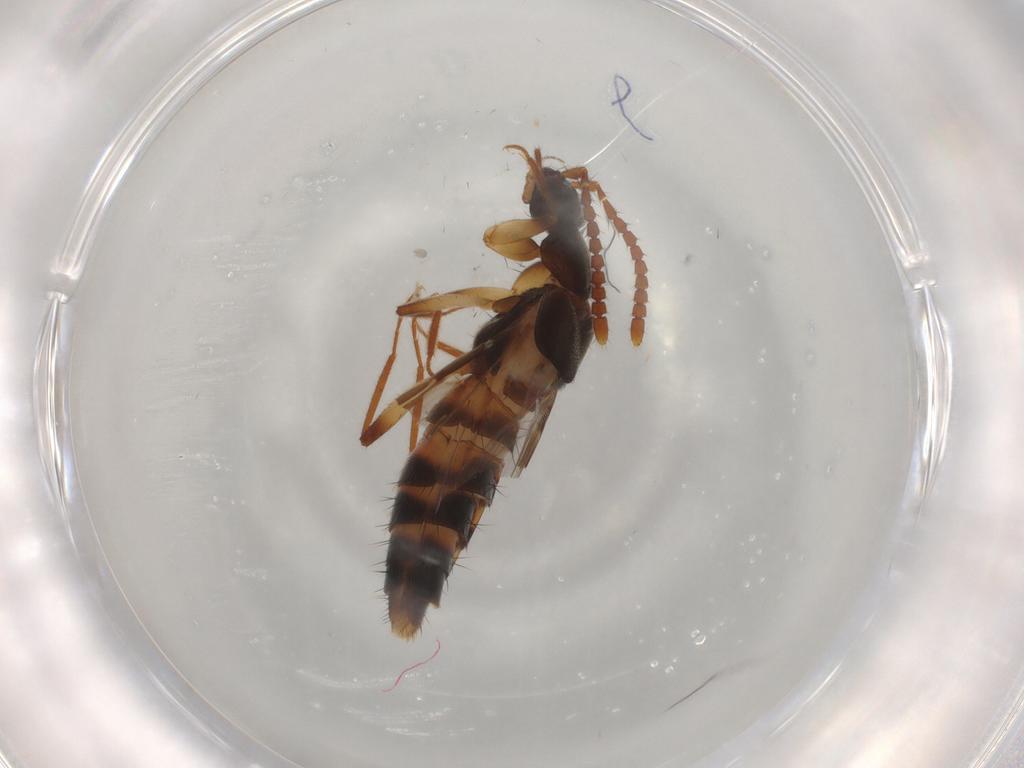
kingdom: Animalia
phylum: Arthropoda
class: Insecta
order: Coleoptera
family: Staphylinidae
